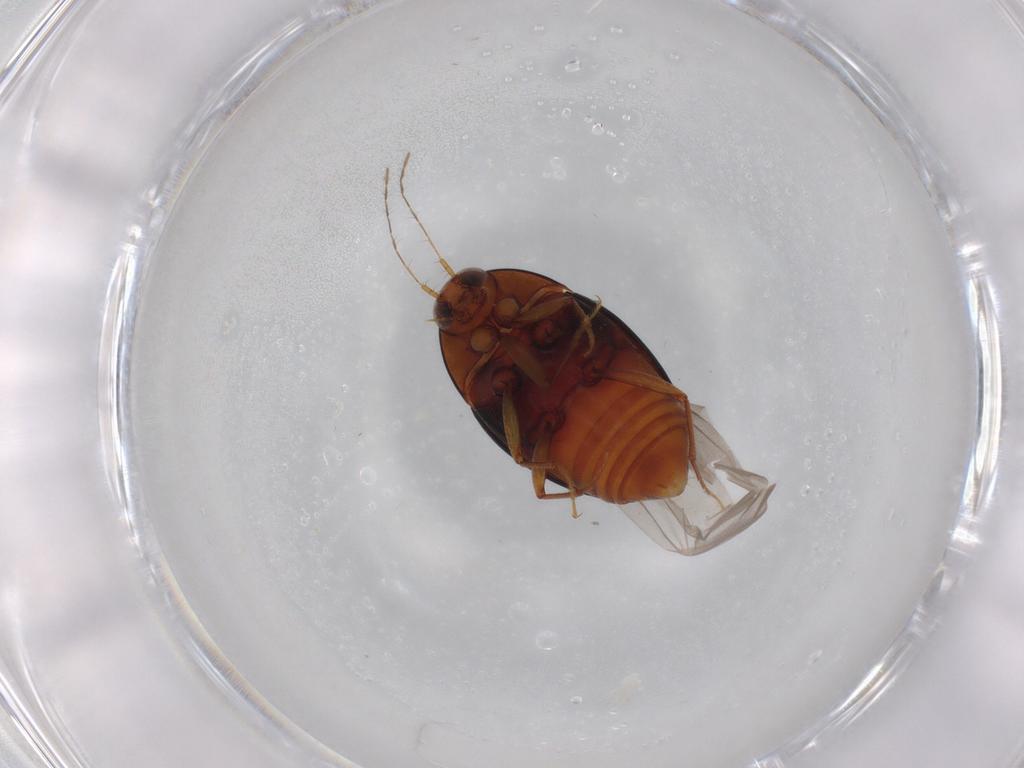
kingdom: Animalia
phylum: Arthropoda
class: Insecta
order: Coleoptera
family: Staphylinidae
